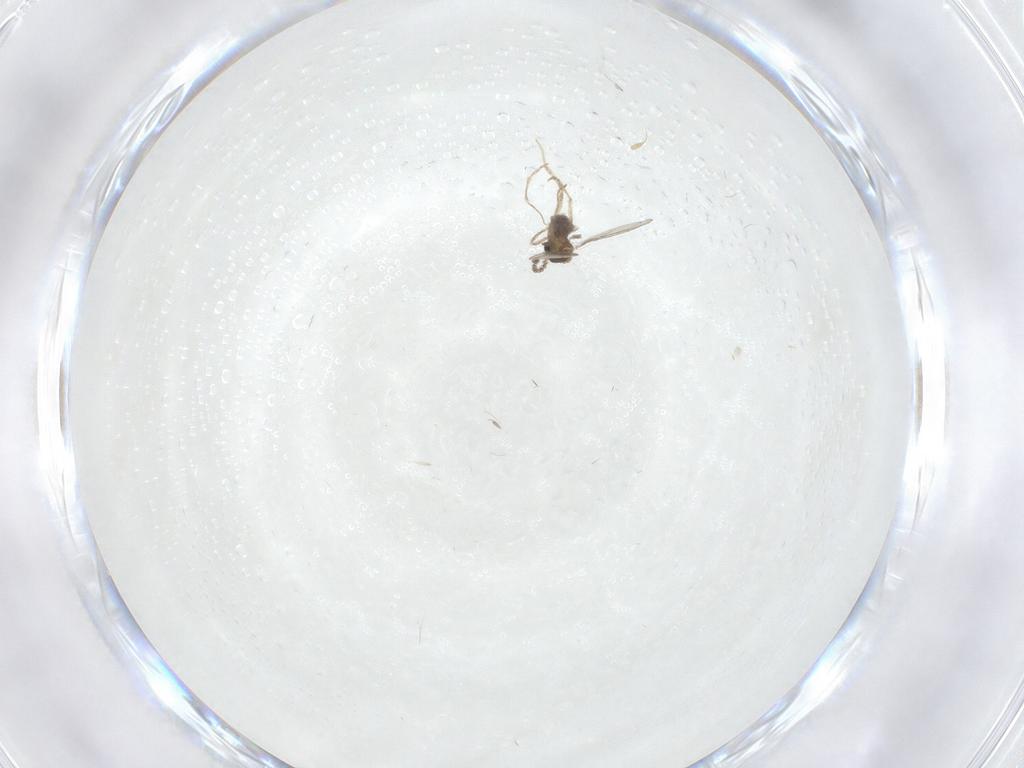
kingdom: Animalia
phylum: Arthropoda
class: Insecta
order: Diptera
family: Cecidomyiidae
